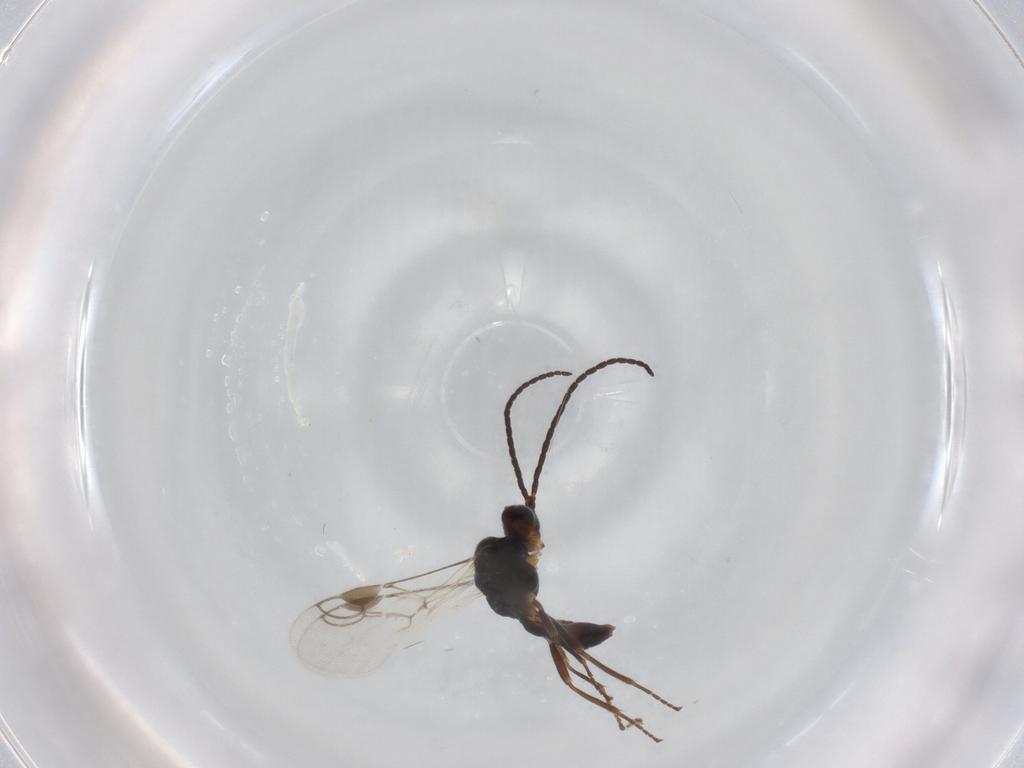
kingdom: Animalia
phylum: Arthropoda
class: Insecta
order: Hymenoptera
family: Braconidae
